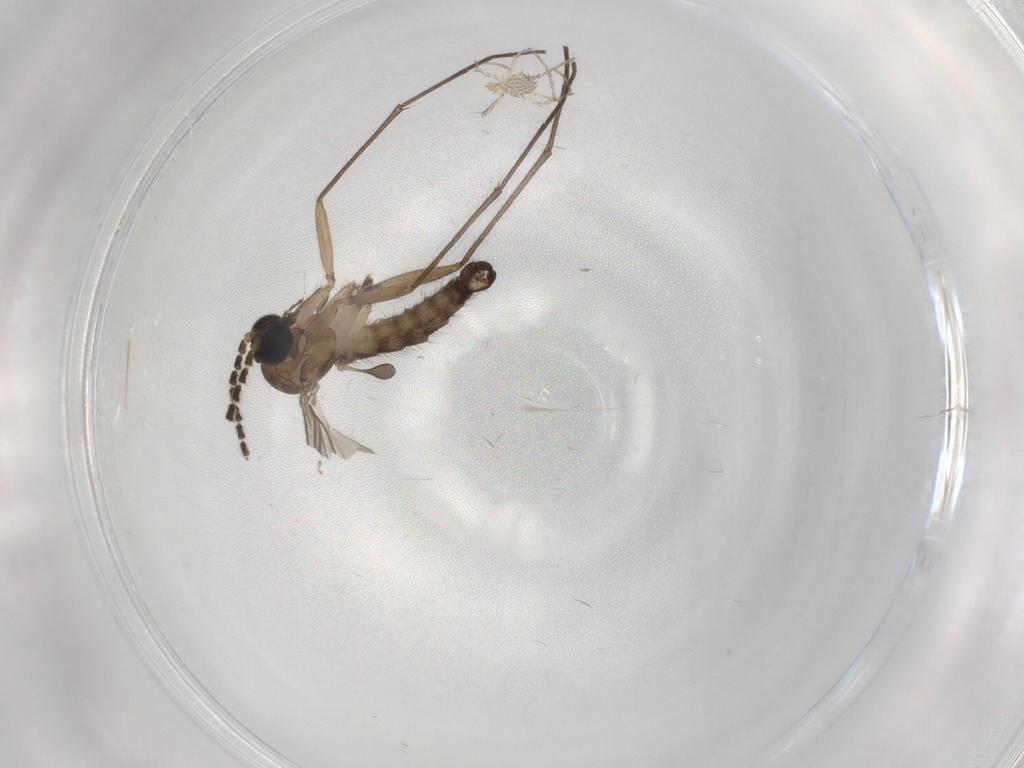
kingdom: Animalia
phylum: Arthropoda
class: Insecta
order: Diptera
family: Sciaridae
